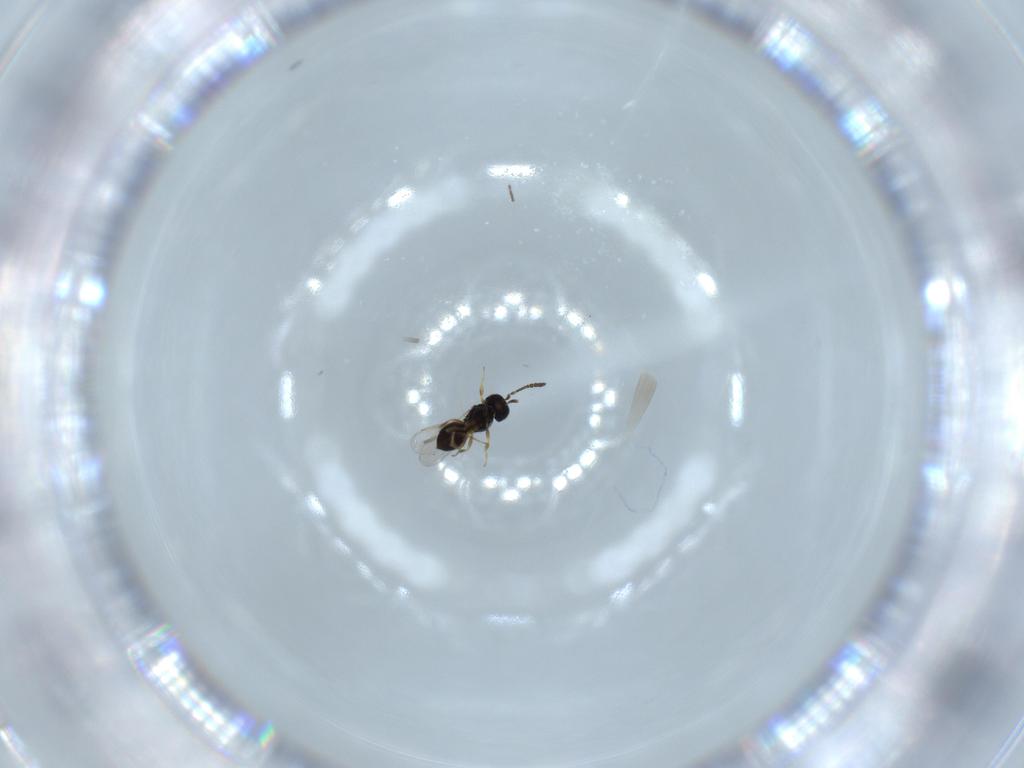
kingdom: Animalia
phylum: Arthropoda
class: Insecta
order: Hymenoptera
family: Scelionidae
